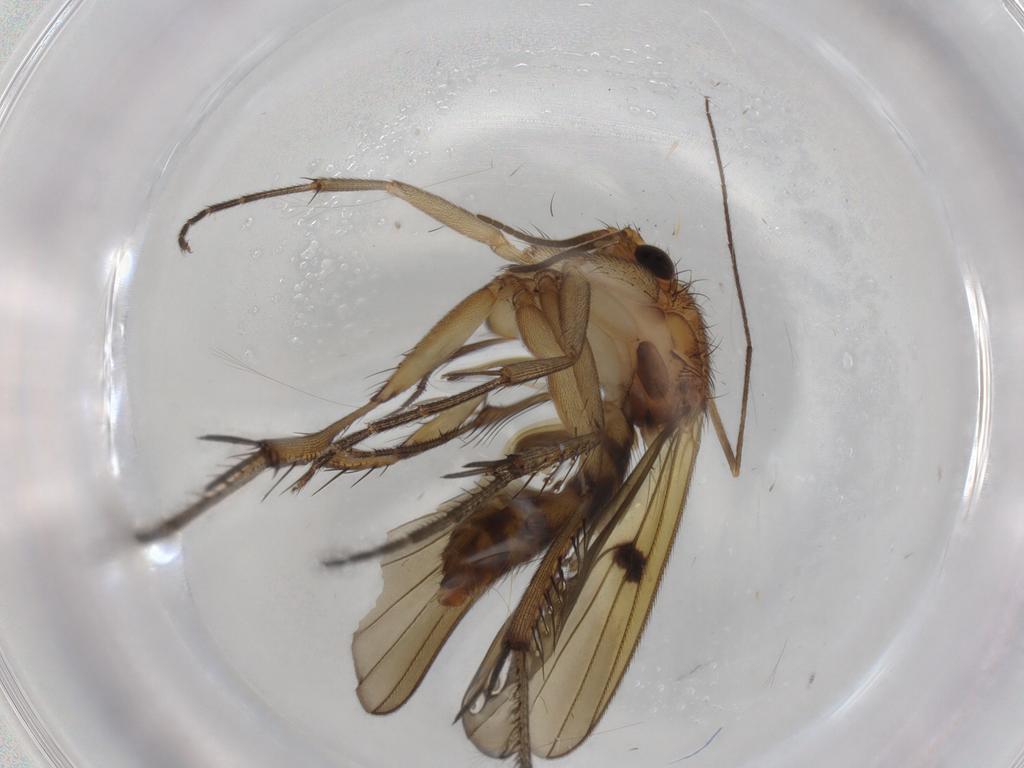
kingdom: Animalia
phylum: Arthropoda
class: Insecta
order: Diptera
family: Mycetophilidae
